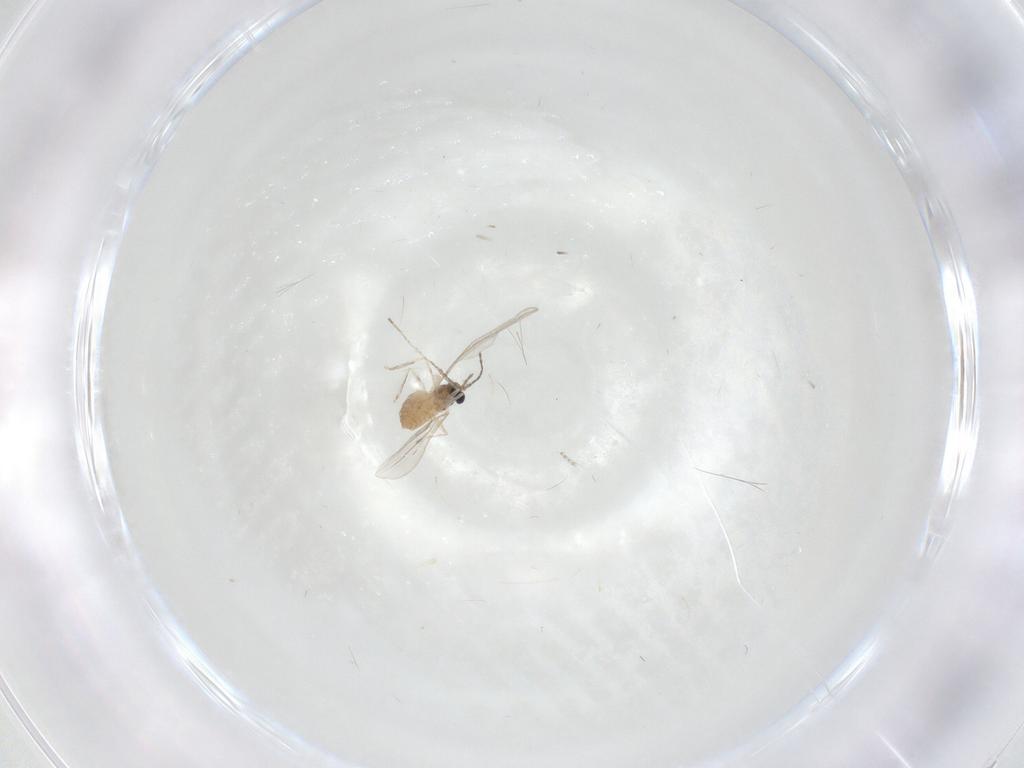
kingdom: Animalia
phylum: Arthropoda
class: Insecta
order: Diptera
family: Cecidomyiidae
